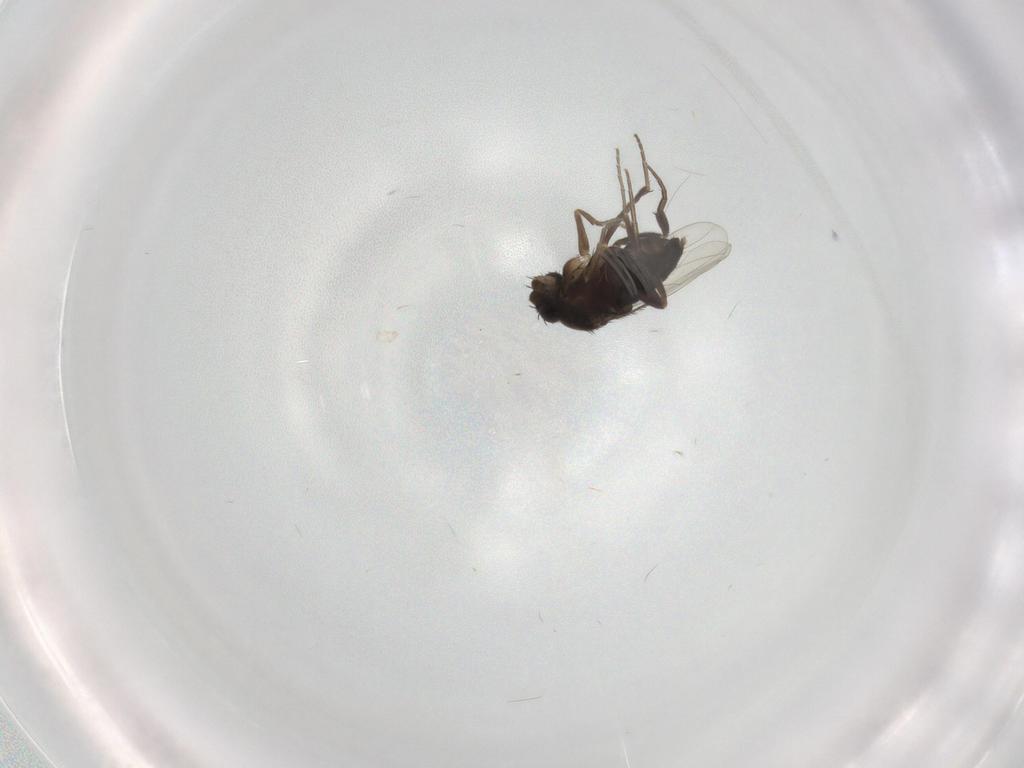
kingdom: Animalia
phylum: Arthropoda
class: Insecta
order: Diptera
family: Phoridae
